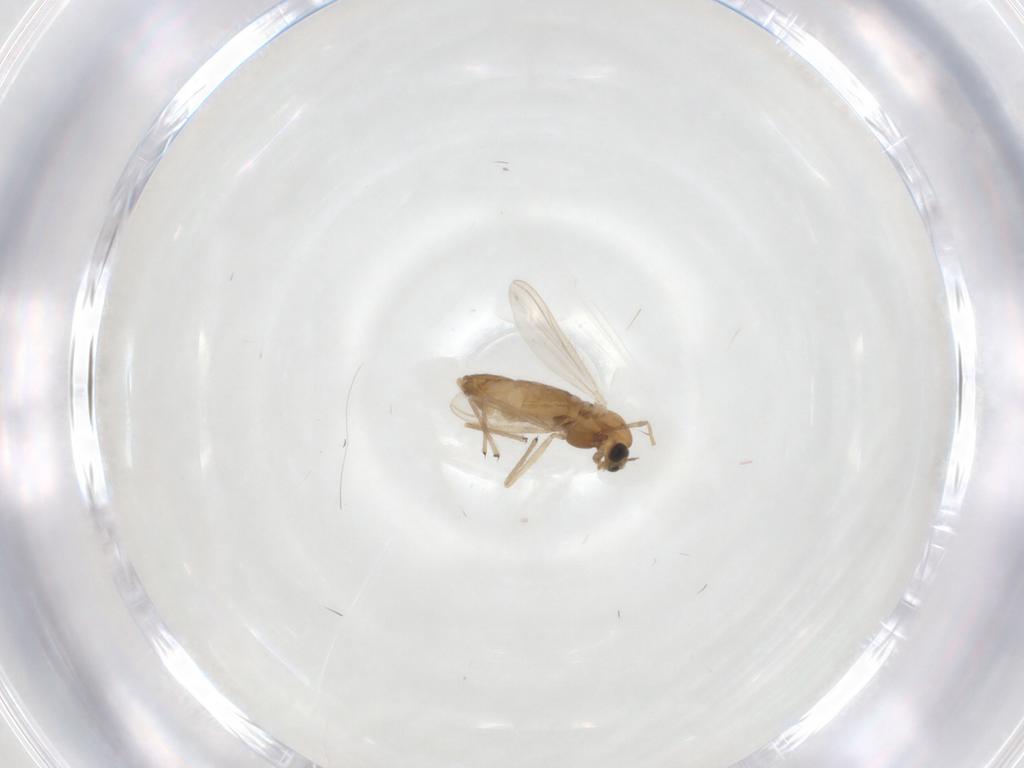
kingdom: Animalia
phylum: Arthropoda
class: Insecta
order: Diptera
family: Chironomidae
